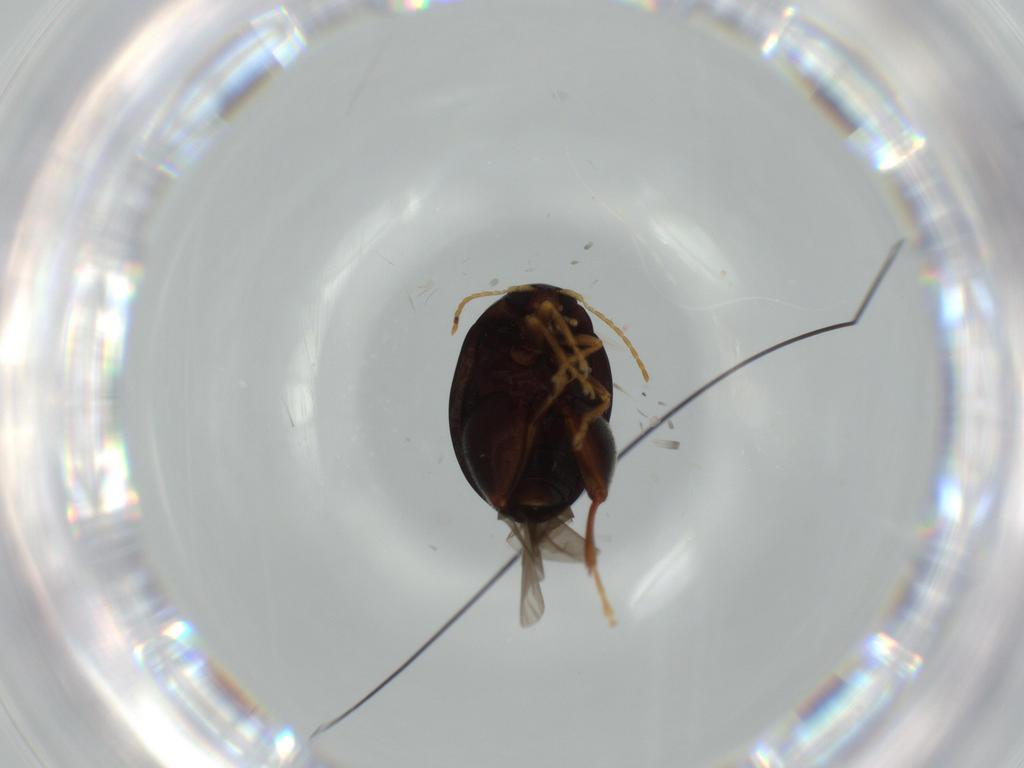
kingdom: Animalia
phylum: Arthropoda
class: Insecta
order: Coleoptera
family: Chrysomelidae
